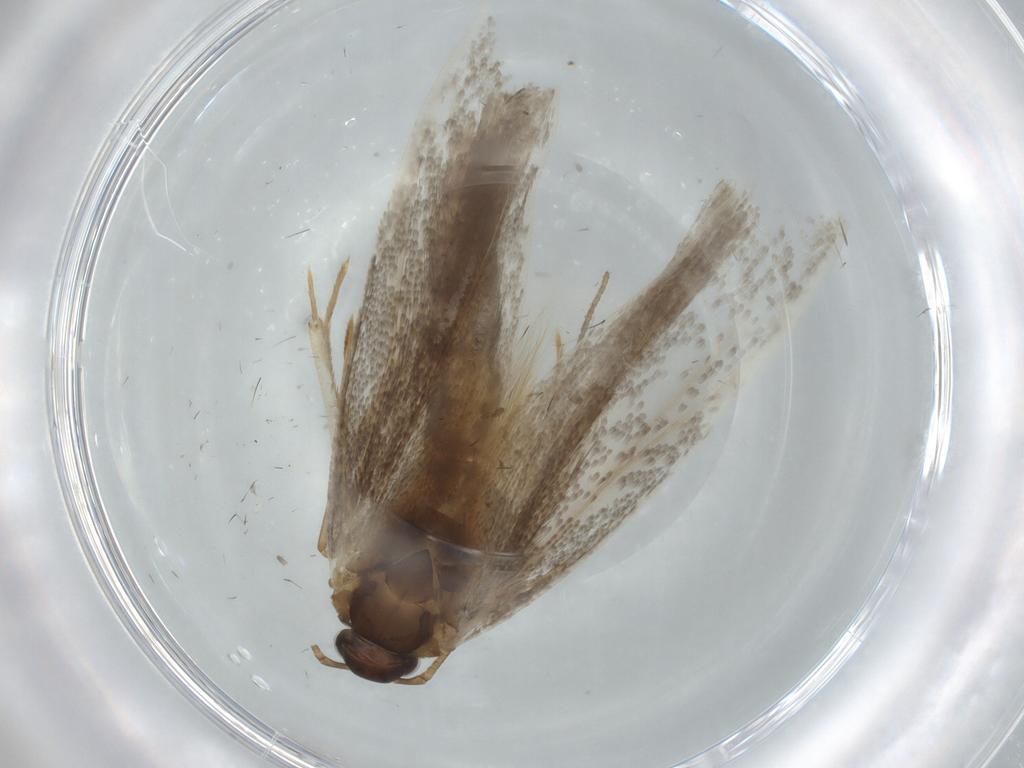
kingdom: Animalia
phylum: Arthropoda
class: Insecta
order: Lepidoptera
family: Gelechiidae
